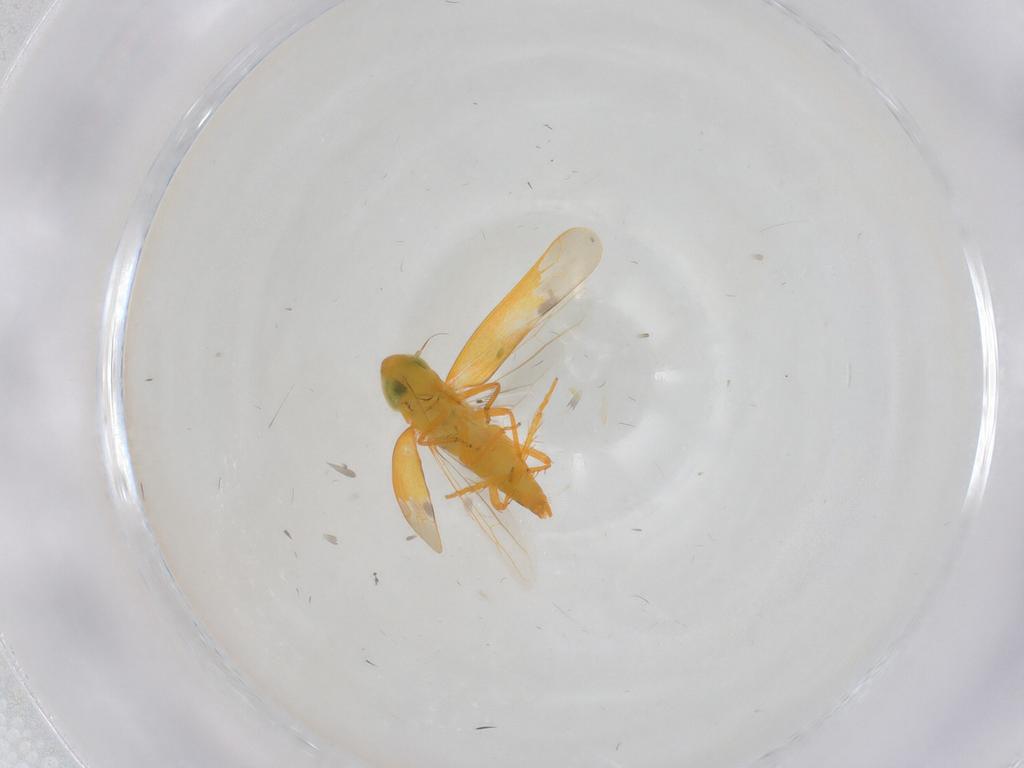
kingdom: Animalia
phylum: Arthropoda
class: Insecta
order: Hemiptera
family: Cicadellidae
